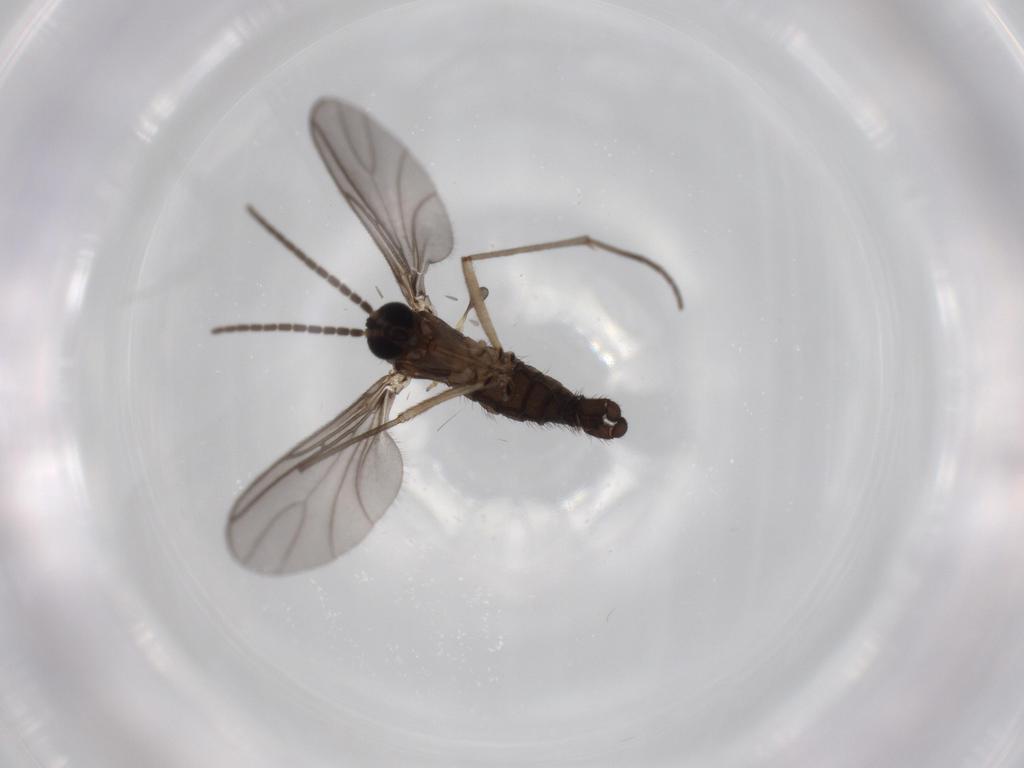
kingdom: Animalia
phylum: Arthropoda
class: Insecta
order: Diptera
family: Sciaridae
